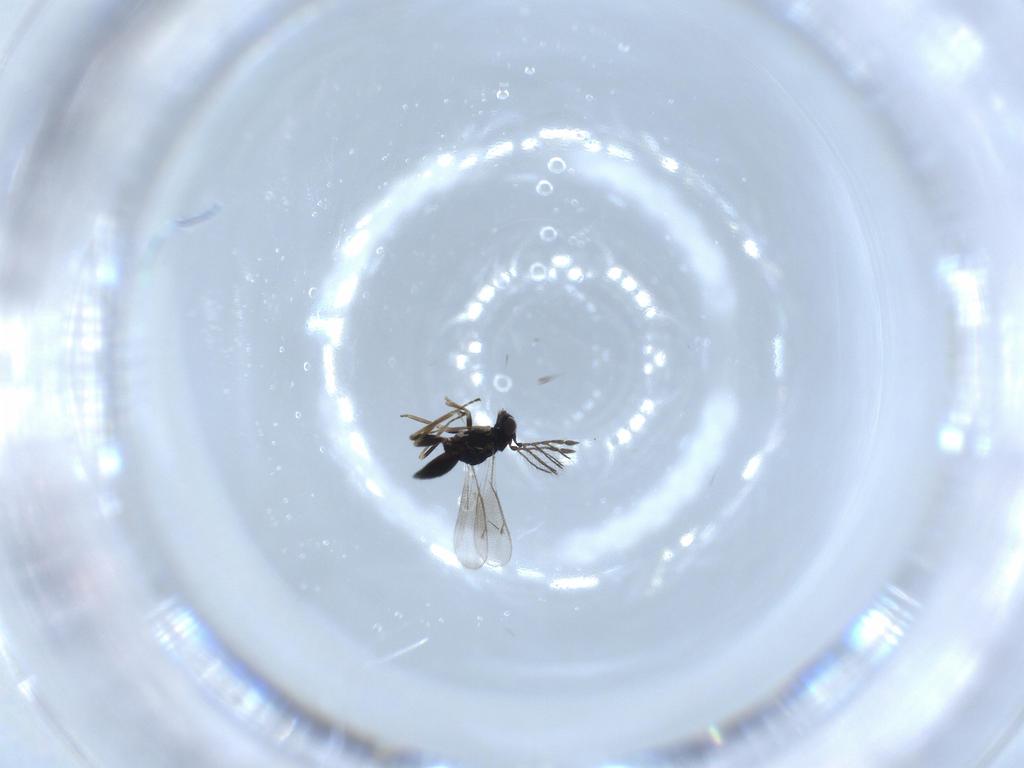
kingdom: Animalia
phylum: Arthropoda
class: Insecta
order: Hymenoptera
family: Eulophidae
